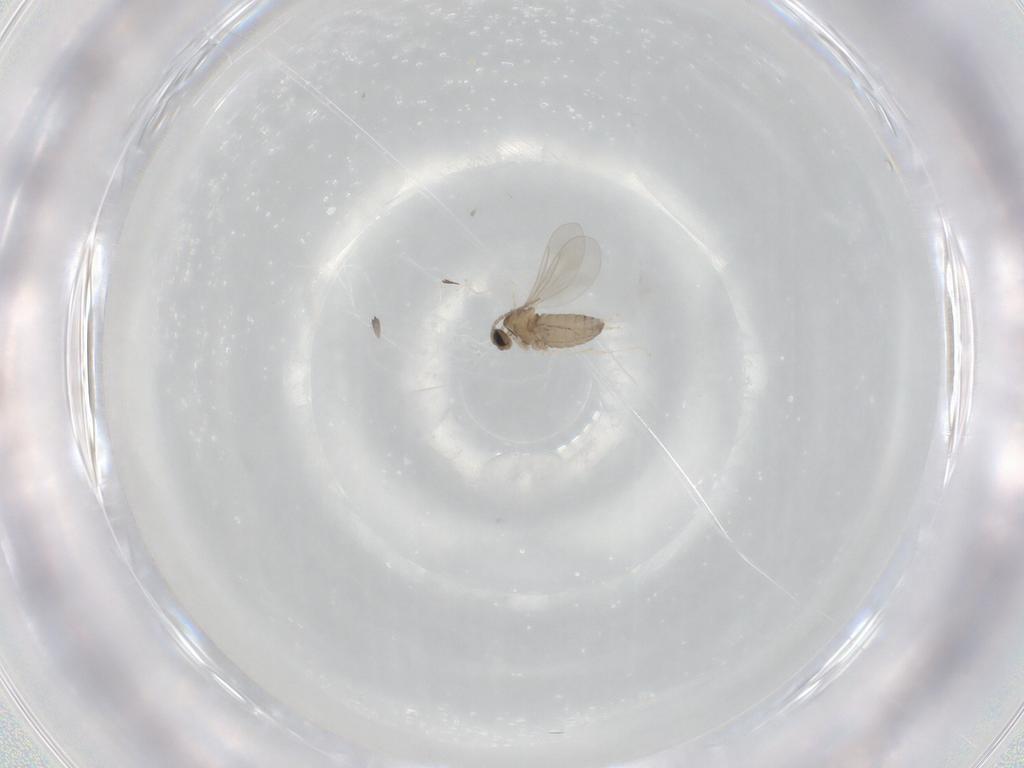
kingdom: Animalia
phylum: Arthropoda
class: Insecta
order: Diptera
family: Cecidomyiidae
